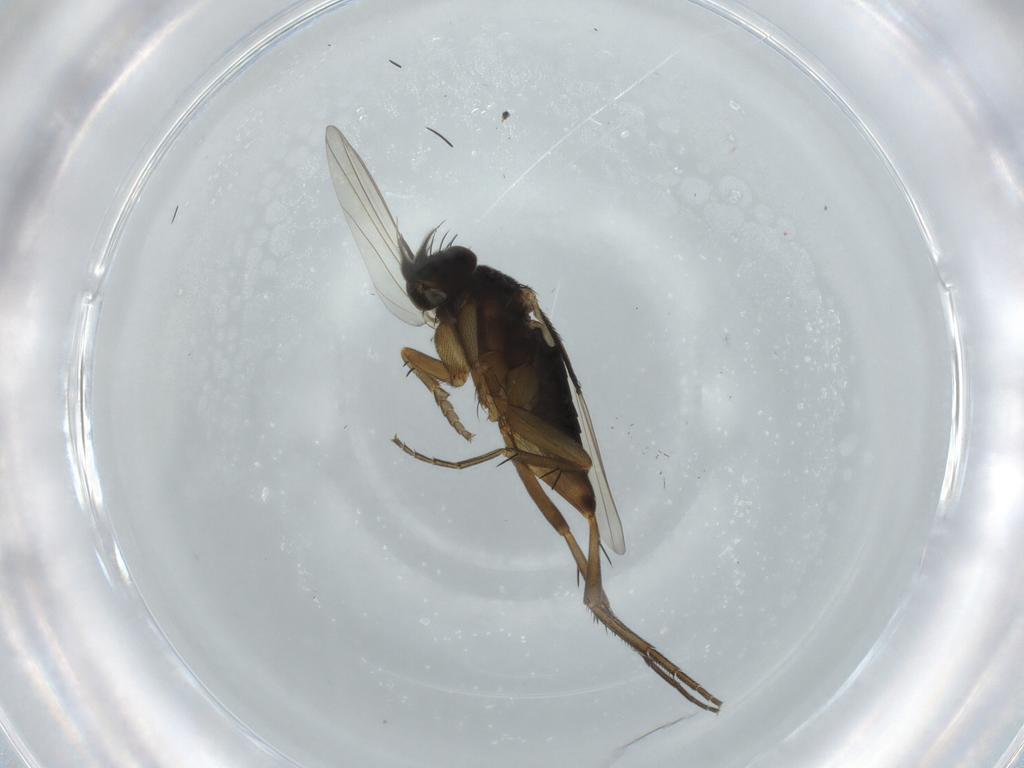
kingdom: Animalia
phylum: Arthropoda
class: Insecta
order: Diptera
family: Phoridae
